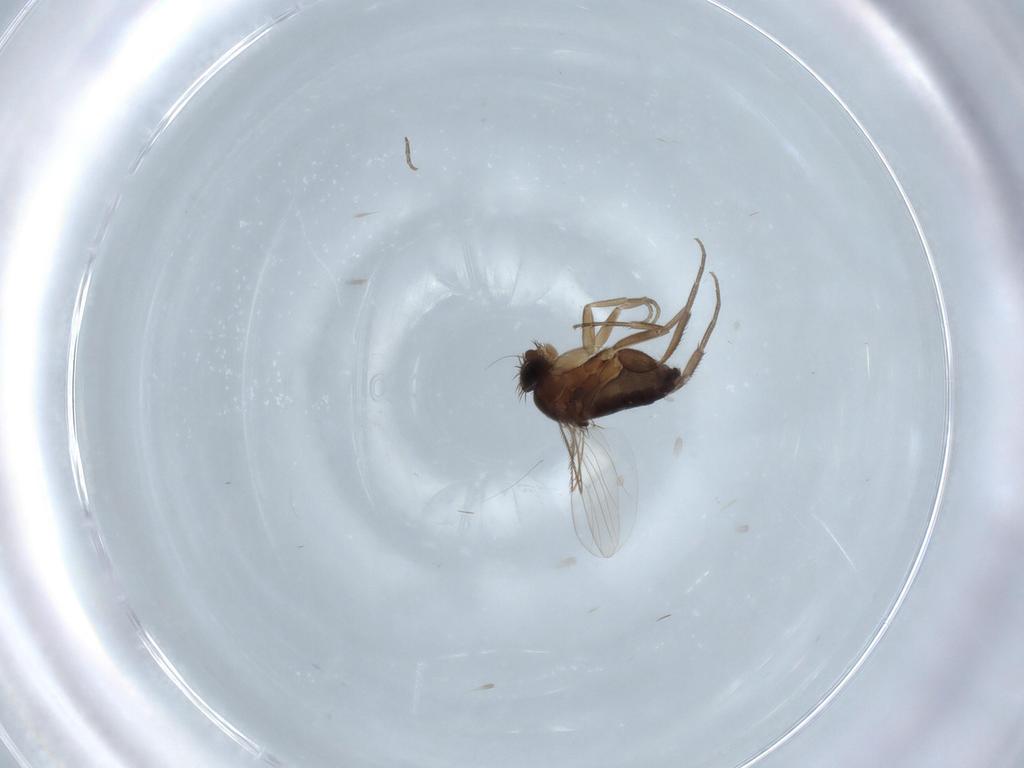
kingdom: Animalia
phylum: Arthropoda
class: Insecta
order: Diptera
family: Phoridae
